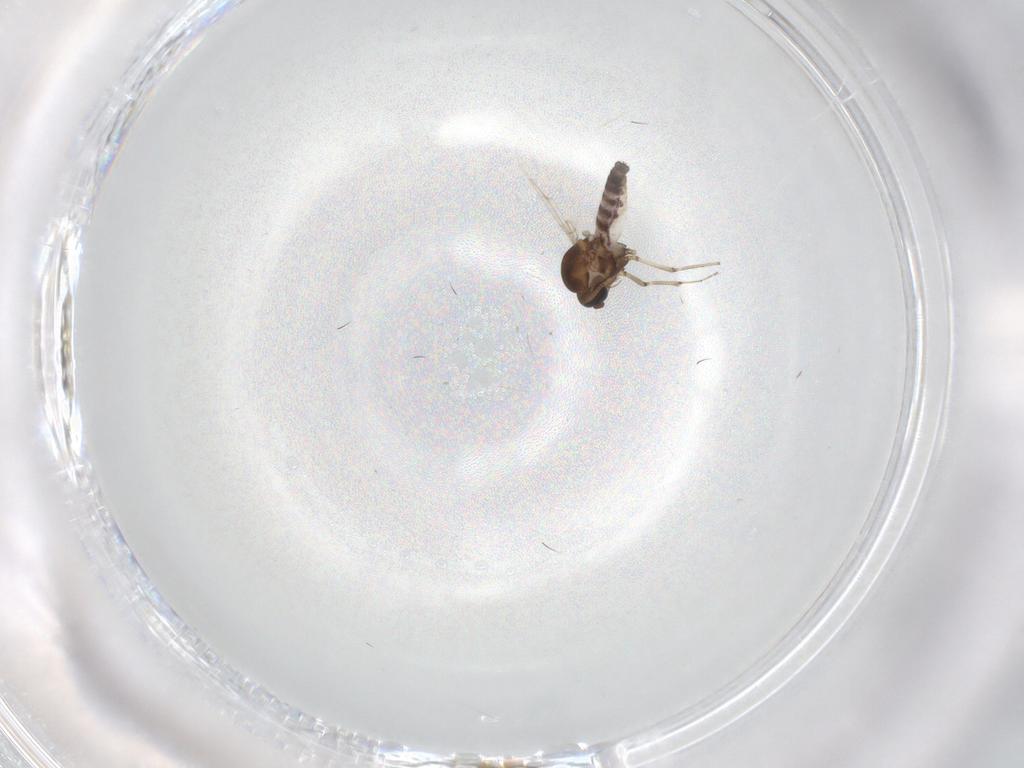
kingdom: Animalia
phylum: Arthropoda
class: Insecta
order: Diptera
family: Ceratopogonidae
